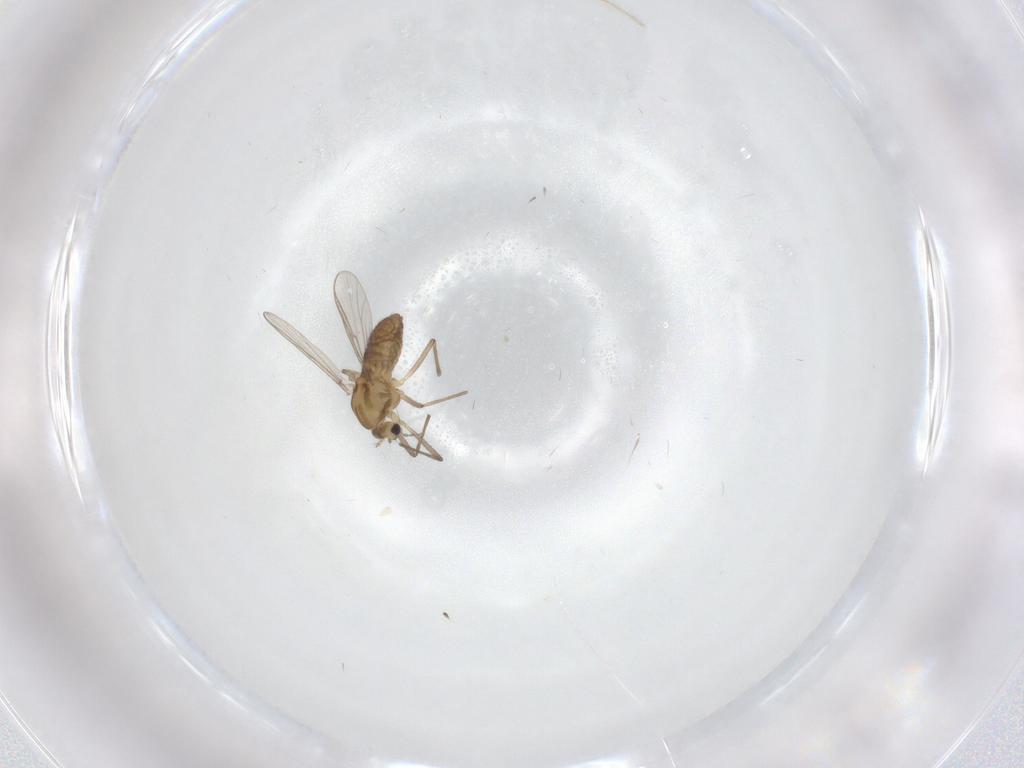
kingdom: Animalia
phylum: Arthropoda
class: Insecta
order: Diptera
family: Chironomidae
